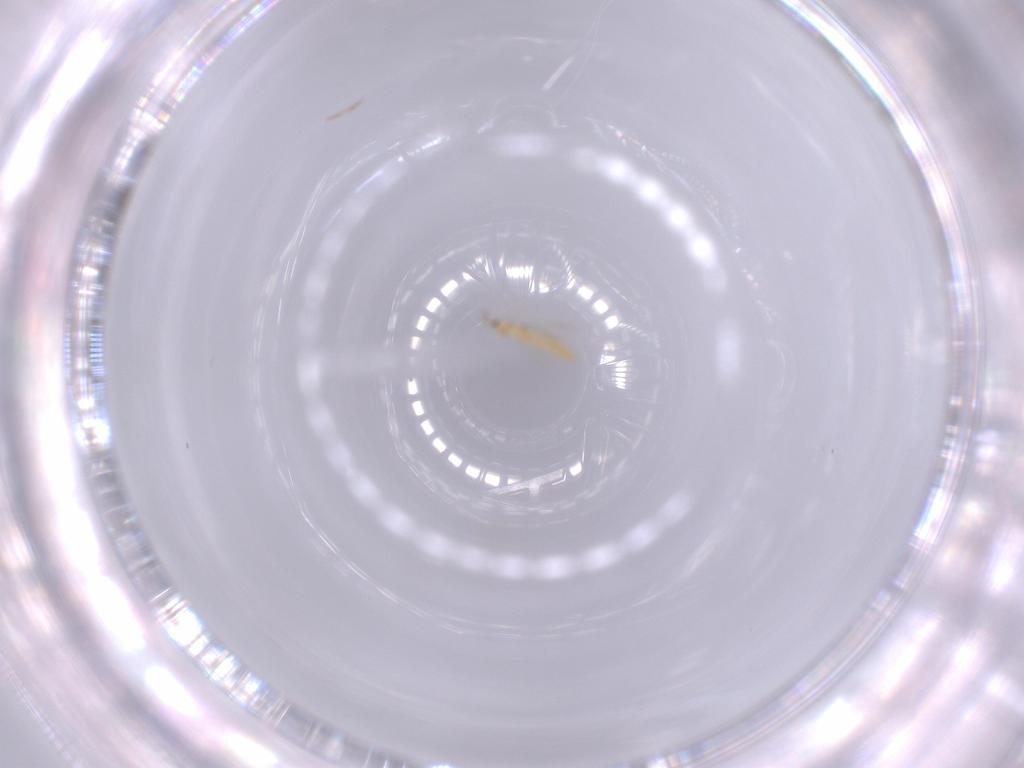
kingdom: Animalia
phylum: Arthropoda
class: Insecta
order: Thysanoptera
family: Phlaeothripidae
